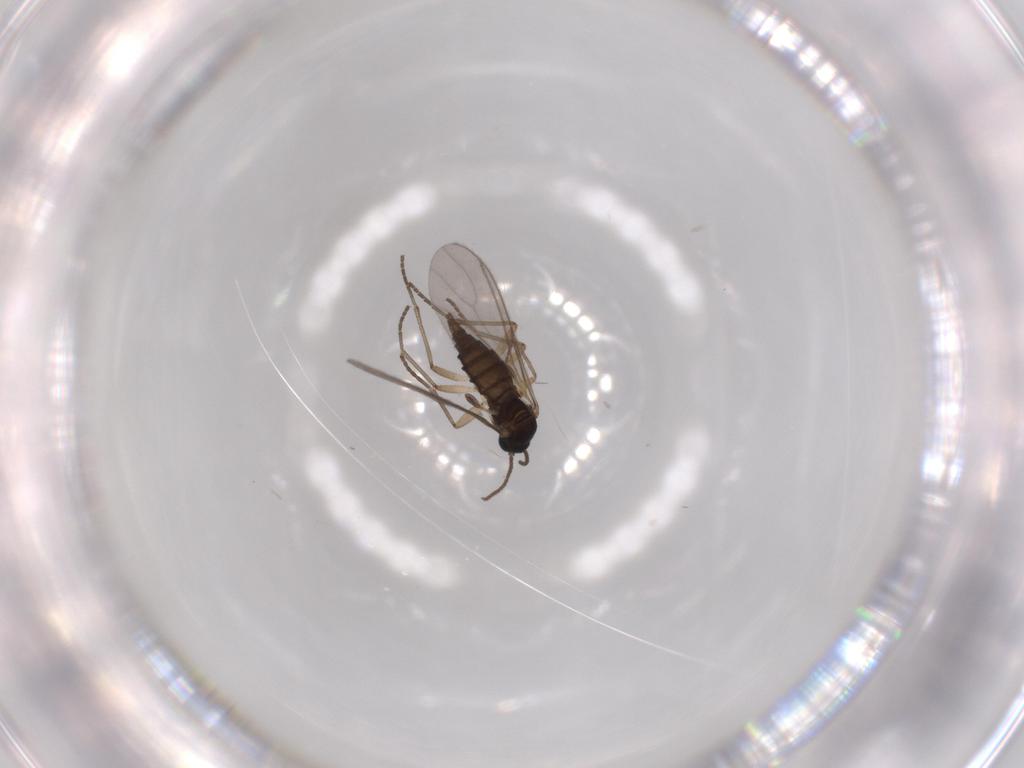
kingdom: Animalia
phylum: Arthropoda
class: Insecta
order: Diptera
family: Sciaridae
